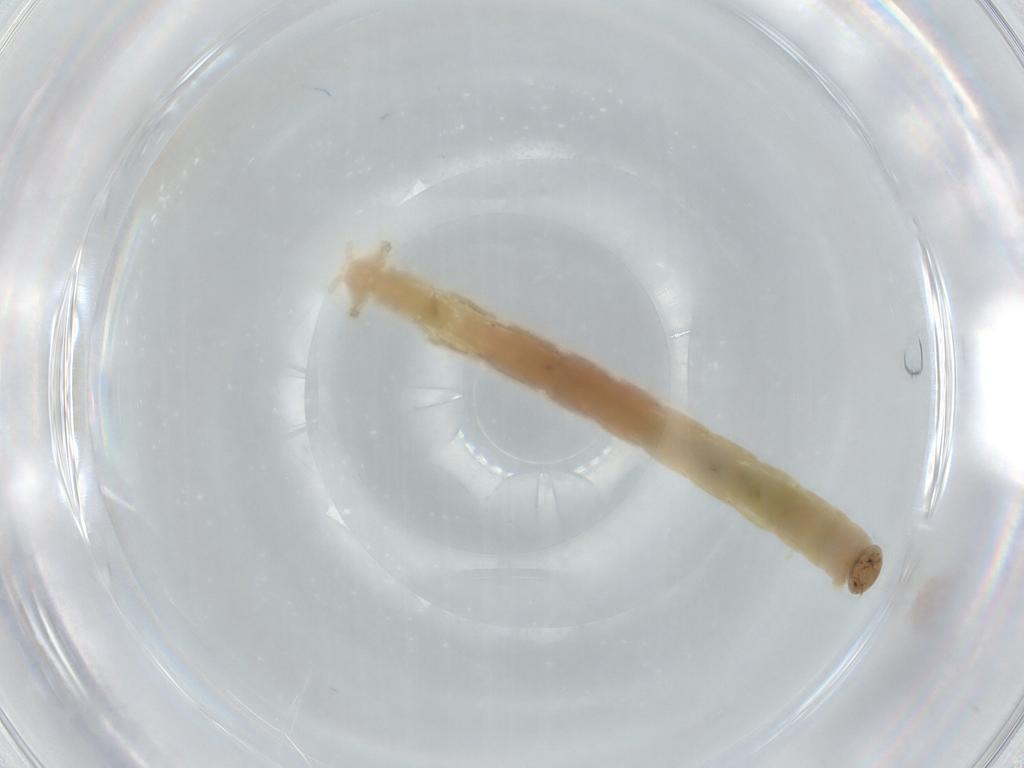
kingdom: Animalia
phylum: Arthropoda
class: Insecta
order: Diptera
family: Chironomidae
